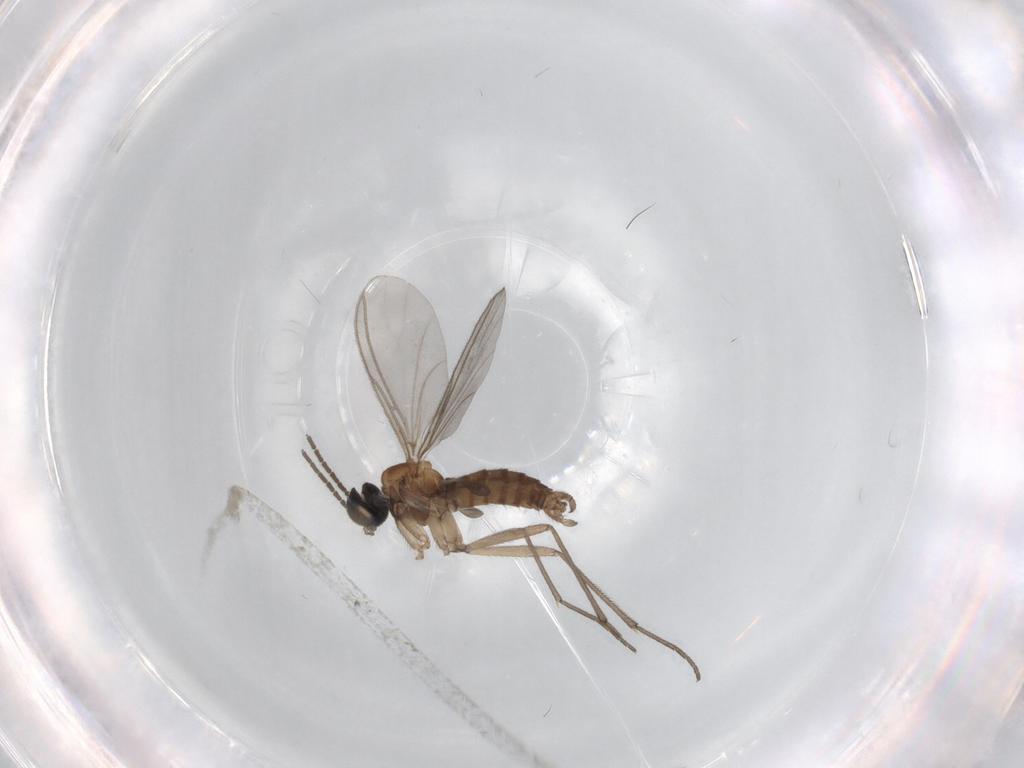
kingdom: Animalia
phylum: Arthropoda
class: Insecta
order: Diptera
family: Sciaridae
